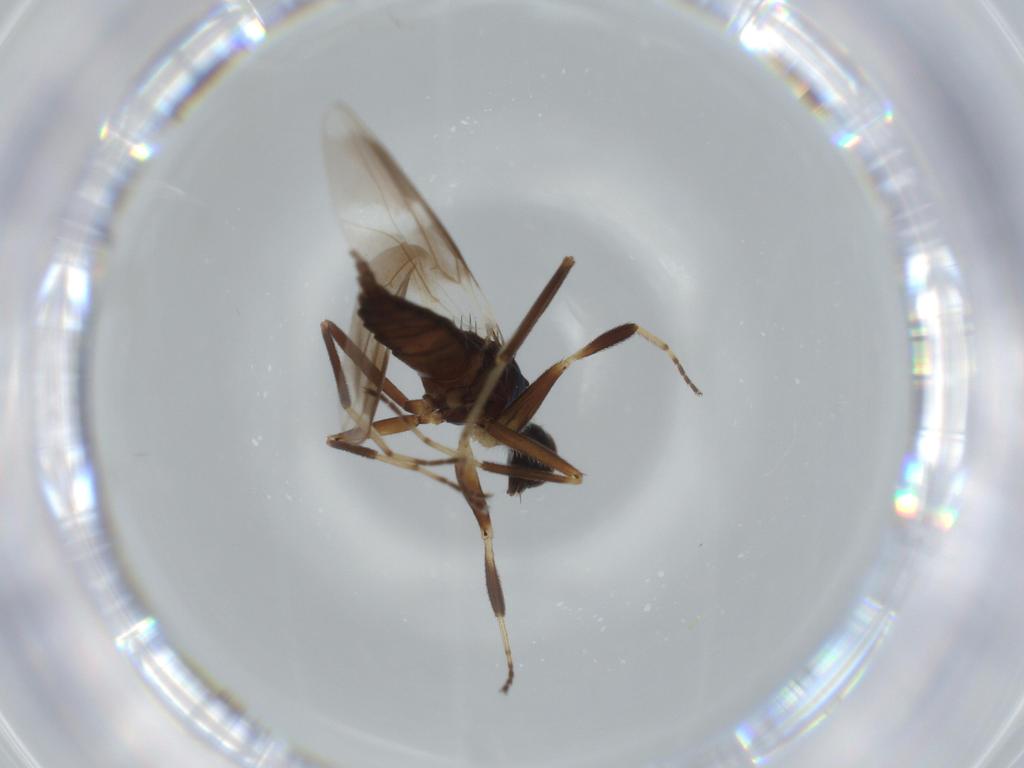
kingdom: Animalia
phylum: Arthropoda
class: Insecta
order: Diptera
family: Hybotidae
